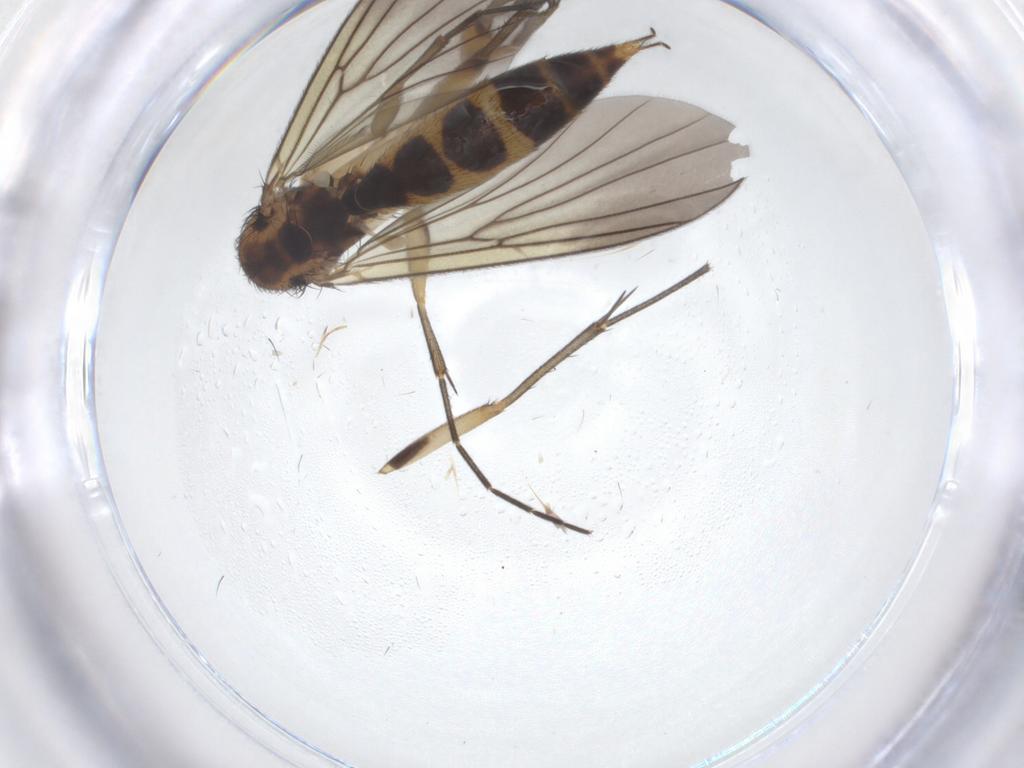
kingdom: Animalia
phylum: Arthropoda
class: Insecta
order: Diptera
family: Mycetophilidae
